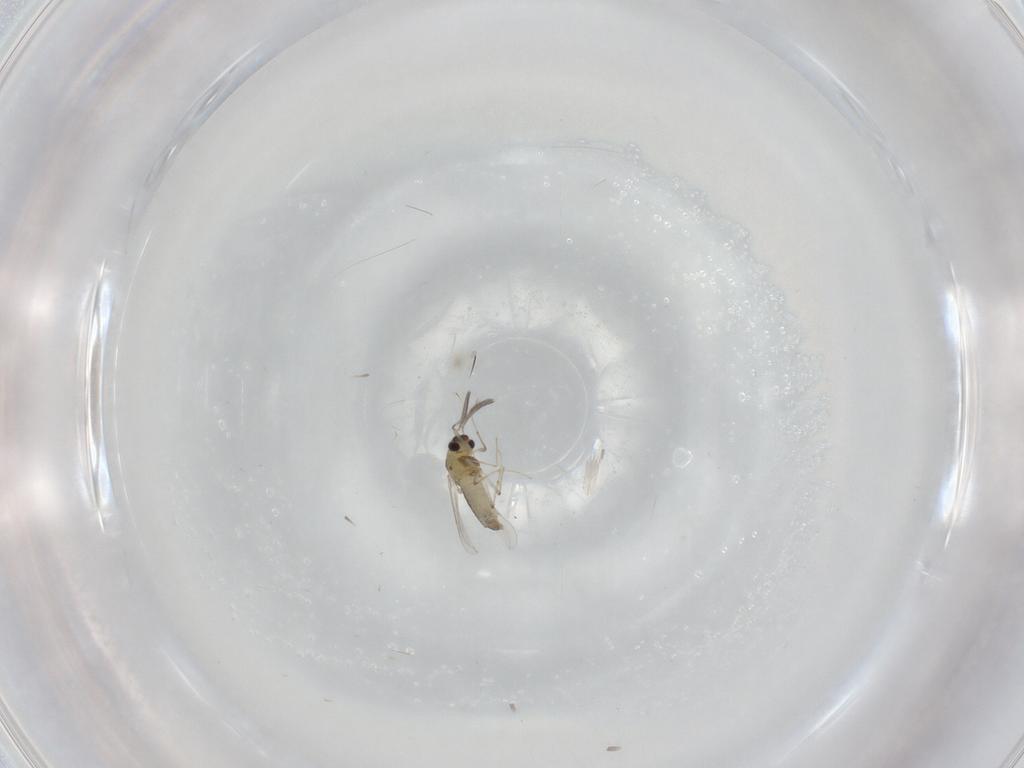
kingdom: Animalia
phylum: Arthropoda
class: Insecta
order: Diptera
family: Chironomidae
